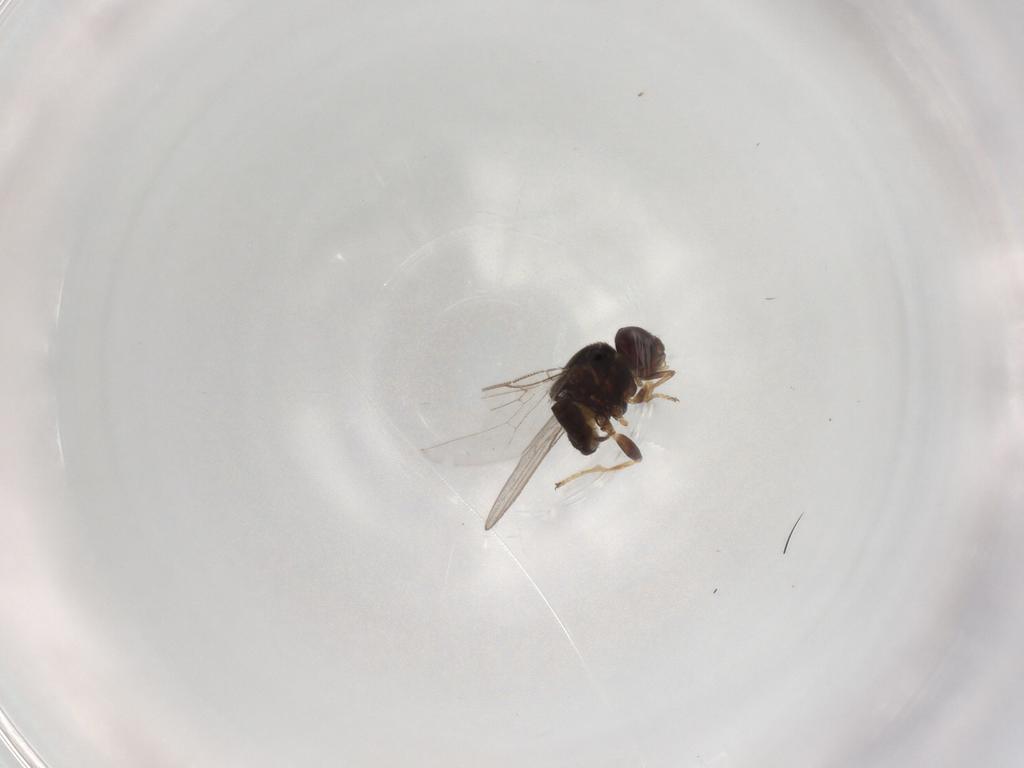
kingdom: Animalia
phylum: Arthropoda
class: Insecta
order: Diptera
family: Chloropidae
